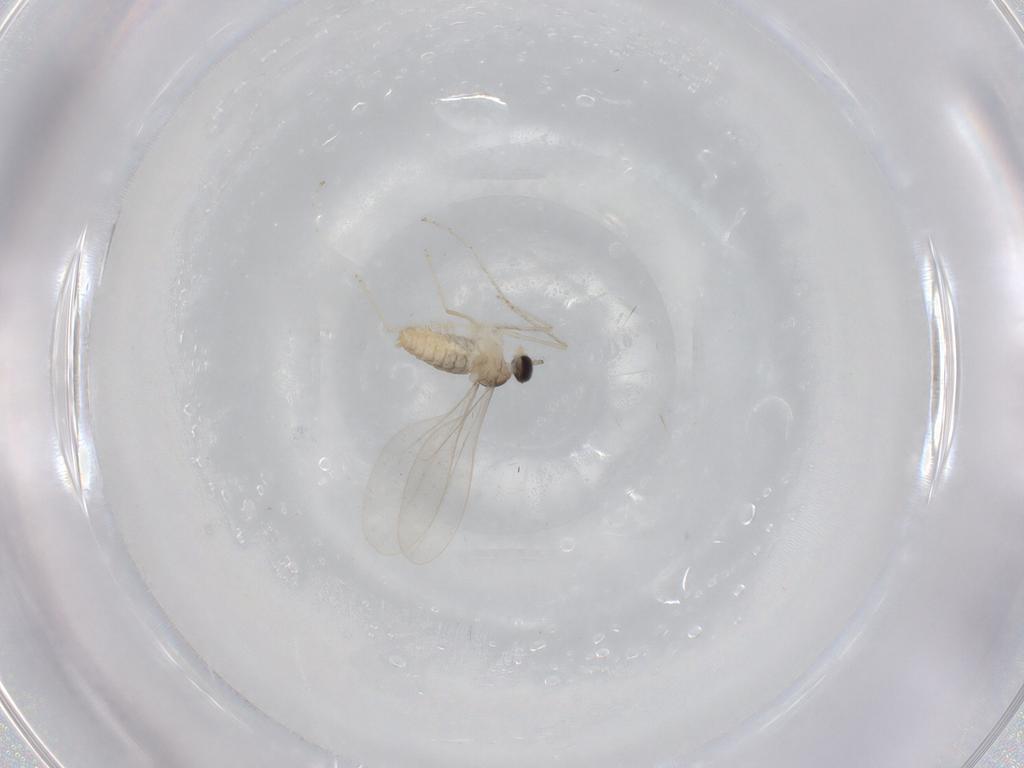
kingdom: Animalia
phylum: Arthropoda
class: Insecta
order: Diptera
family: Cecidomyiidae
